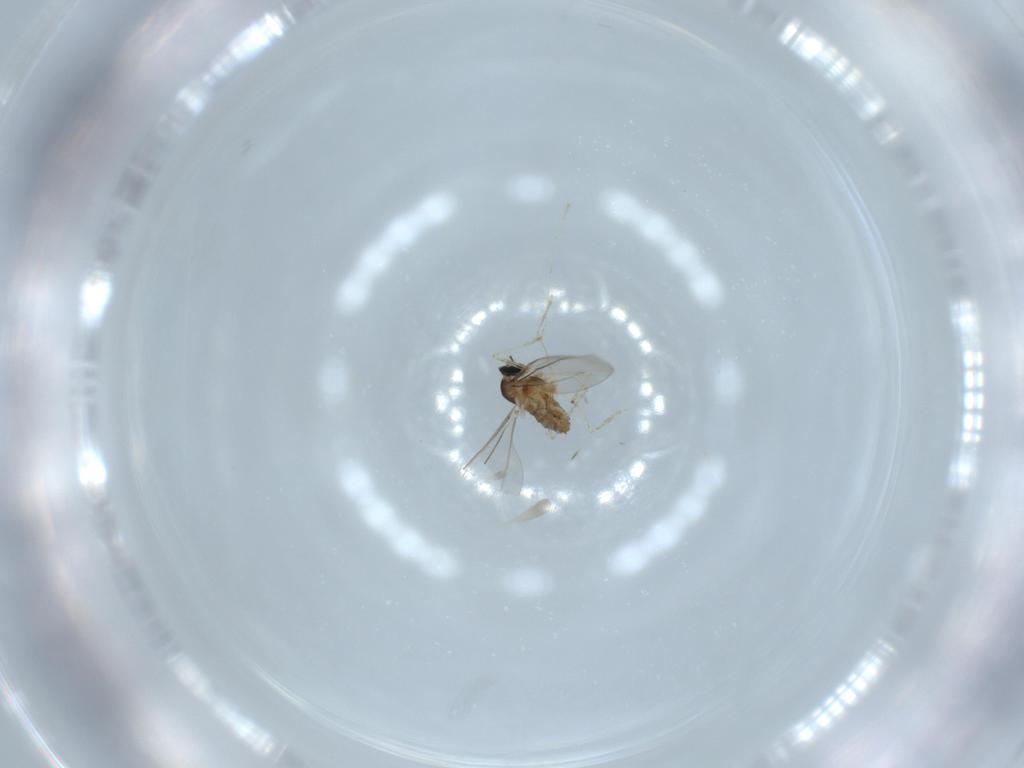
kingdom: Animalia
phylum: Arthropoda
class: Insecta
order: Diptera
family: Cecidomyiidae
